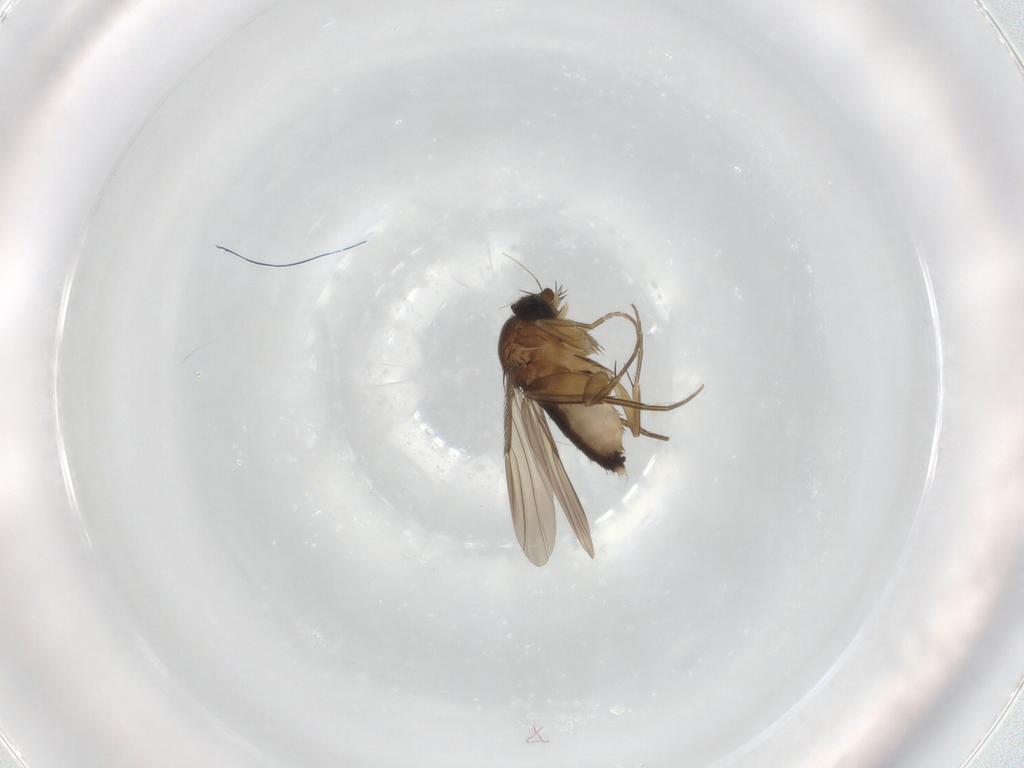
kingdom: Animalia
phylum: Arthropoda
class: Insecta
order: Diptera
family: Phoridae
